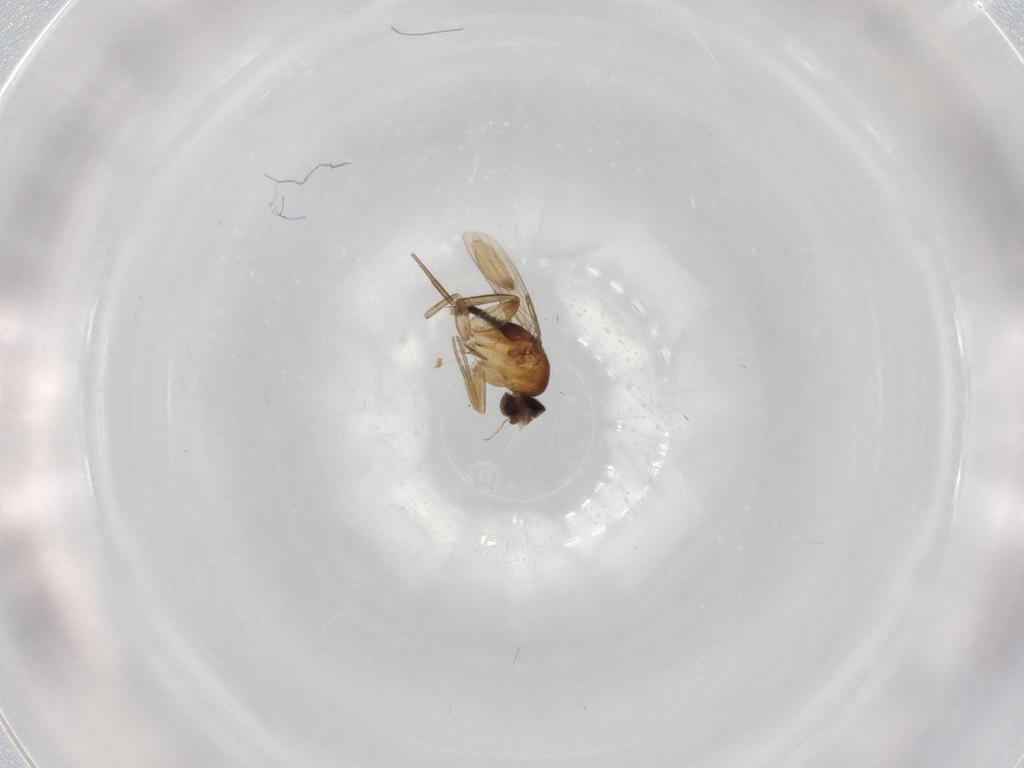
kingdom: Animalia
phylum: Arthropoda
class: Insecta
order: Diptera
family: Phoridae
